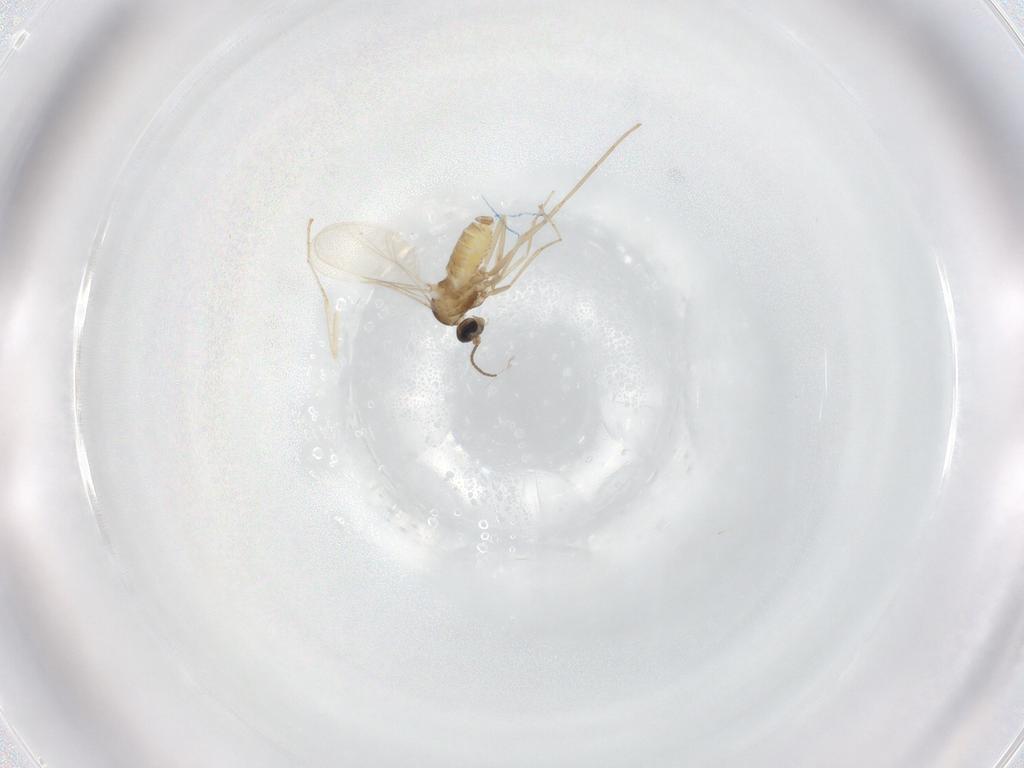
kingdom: Animalia
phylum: Arthropoda
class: Insecta
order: Diptera
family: Cecidomyiidae
